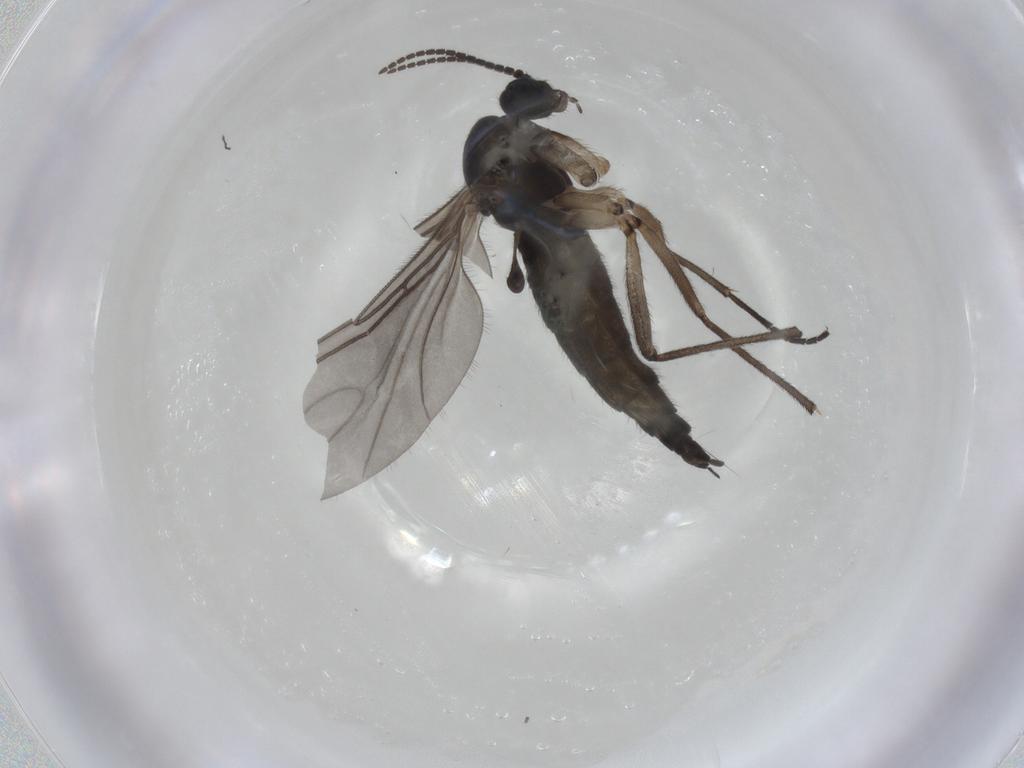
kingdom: Animalia
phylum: Arthropoda
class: Insecta
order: Diptera
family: Sciaridae
